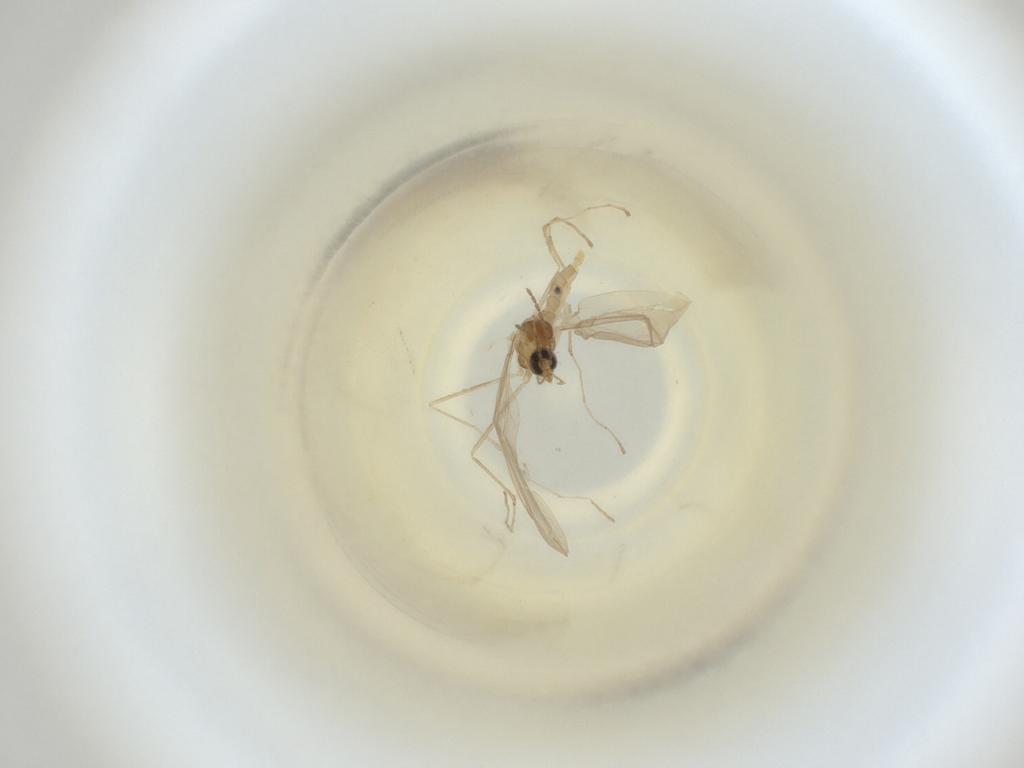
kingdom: Animalia
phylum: Arthropoda
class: Insecta
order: Diptera
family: Cecidomyiidae
